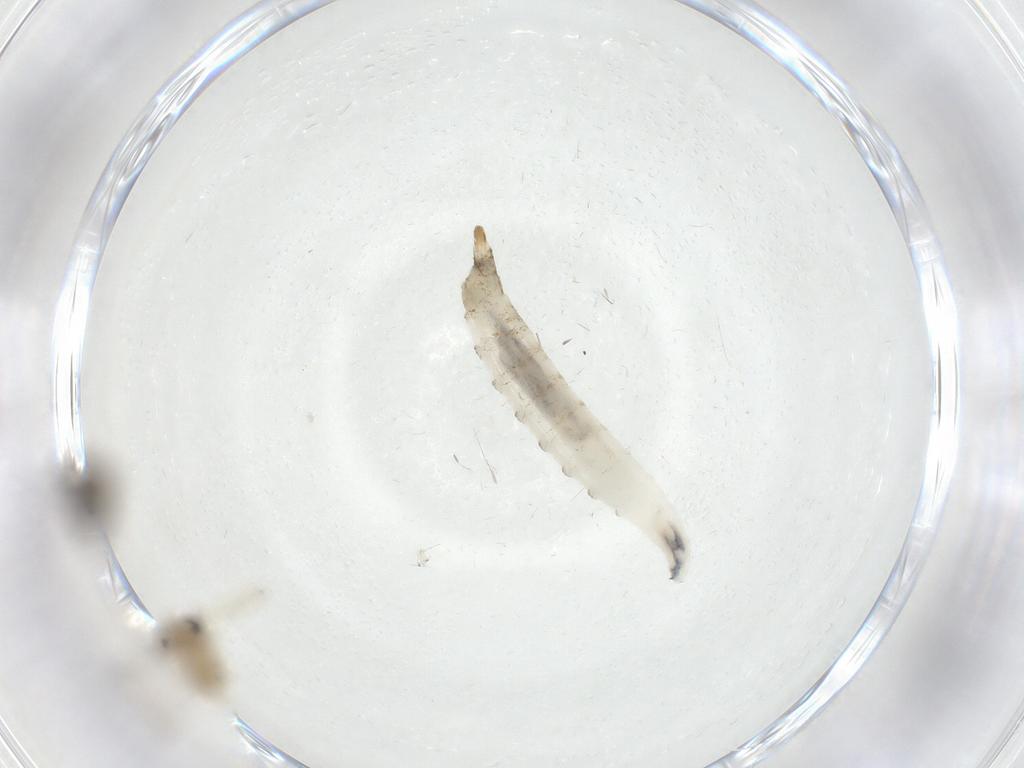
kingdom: Animalia
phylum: Arthropoda
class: Insecta
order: Diptera
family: Chironomidae
